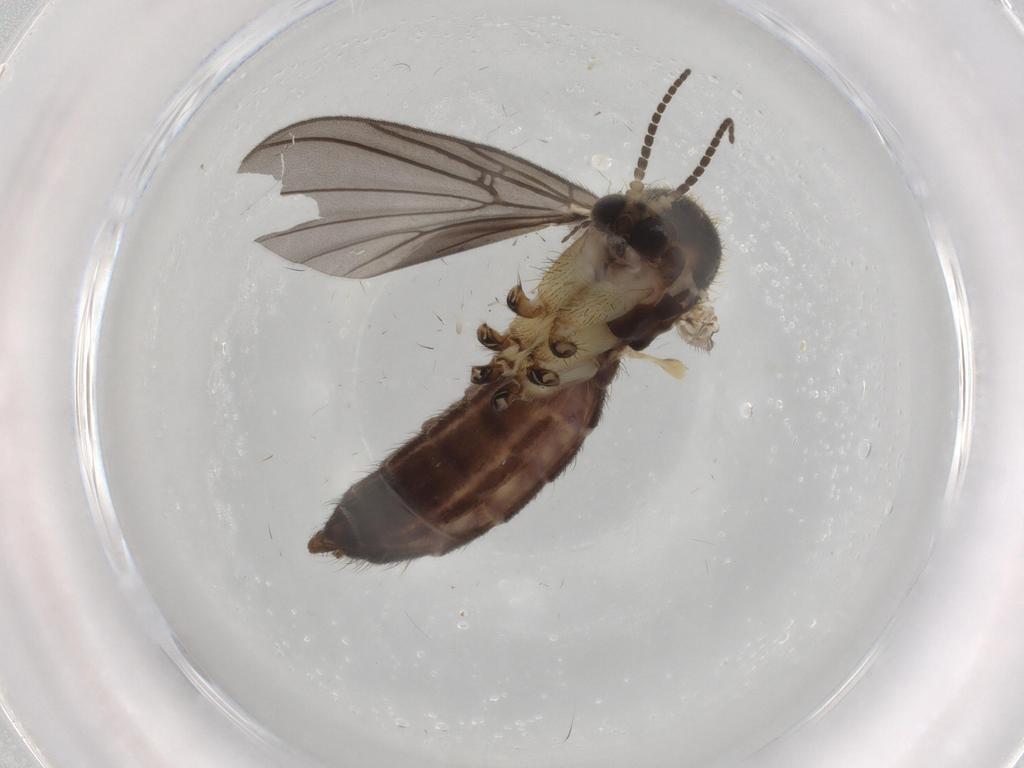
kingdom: Animalia
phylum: Arthropoda
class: Insecta
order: Diptera
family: Mycetophilidae
